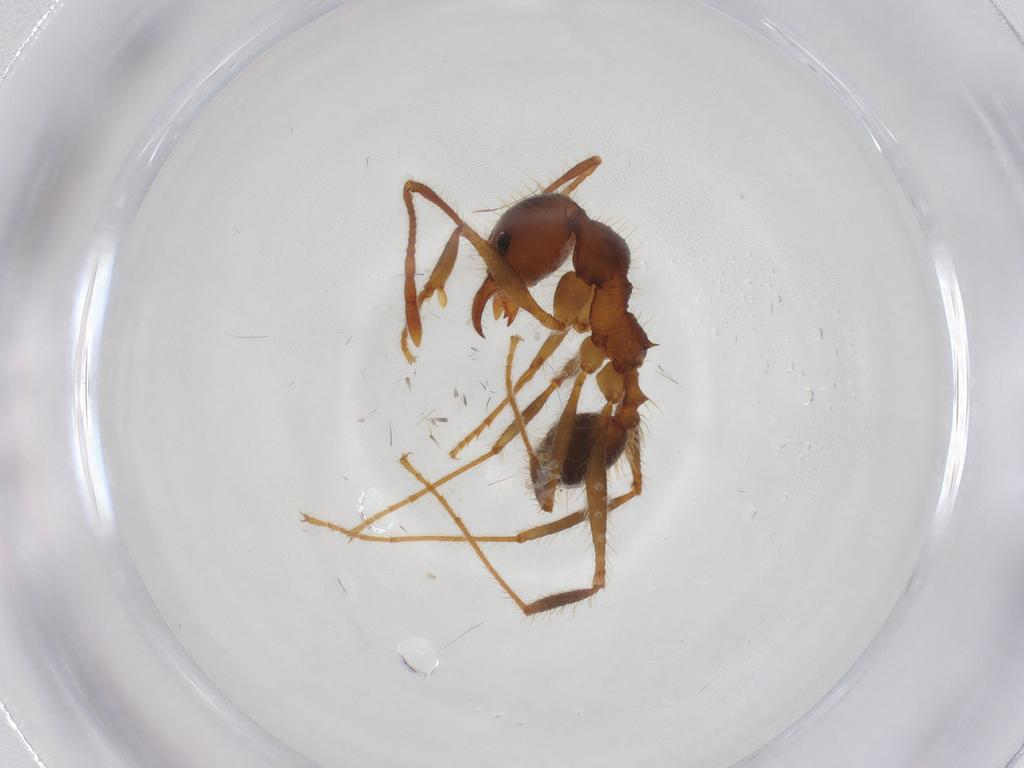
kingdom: Animalia
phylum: Arthropoda
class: Insecta
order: Hymenoptera
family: Formicidae
